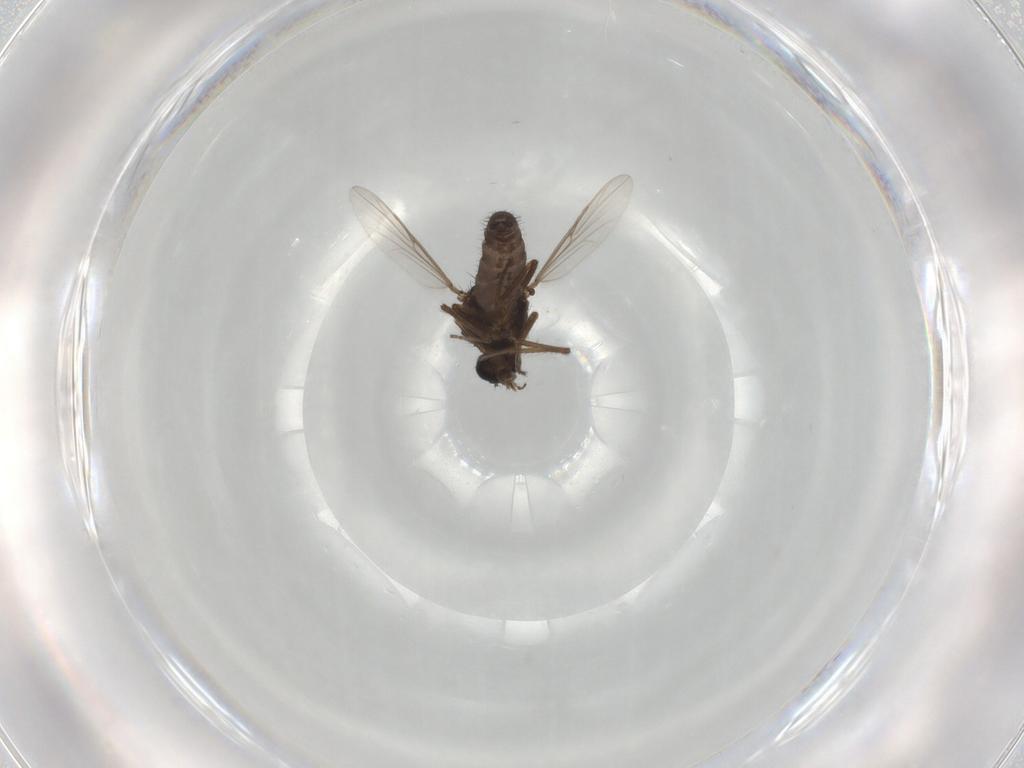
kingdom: Animalia
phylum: Arthropoda
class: Insecta
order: Diptera
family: Ceratopogonidae
